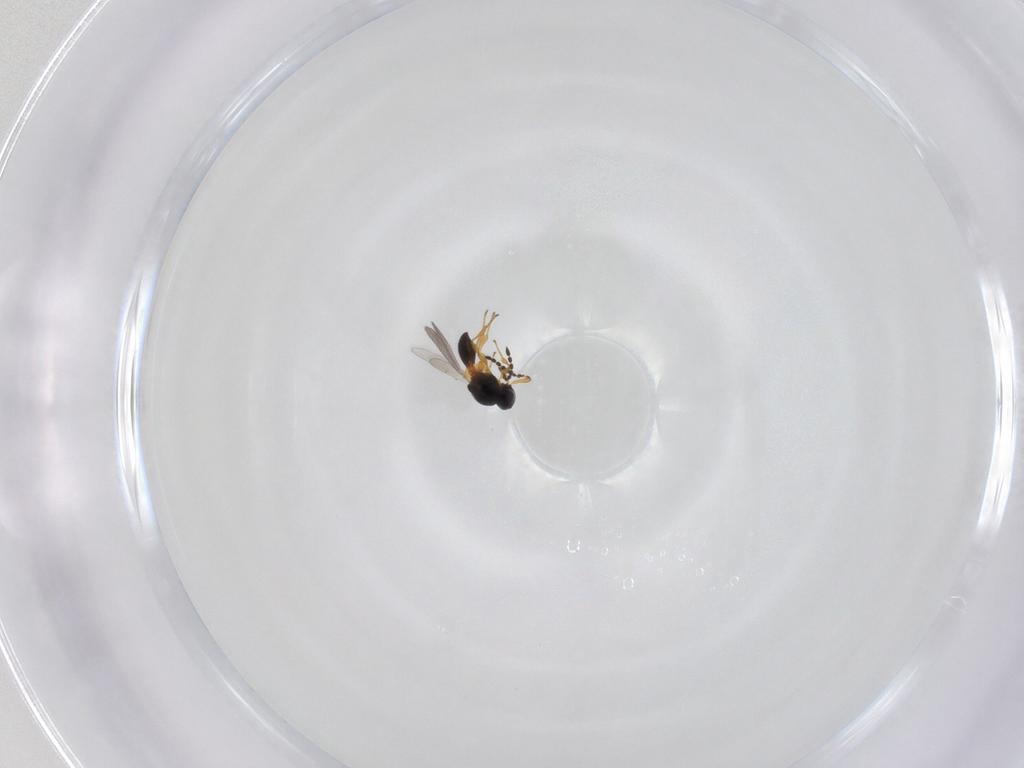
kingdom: Animalia
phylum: Arthropoda
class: Insecta
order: Hymenoptera
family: Platygastridae
